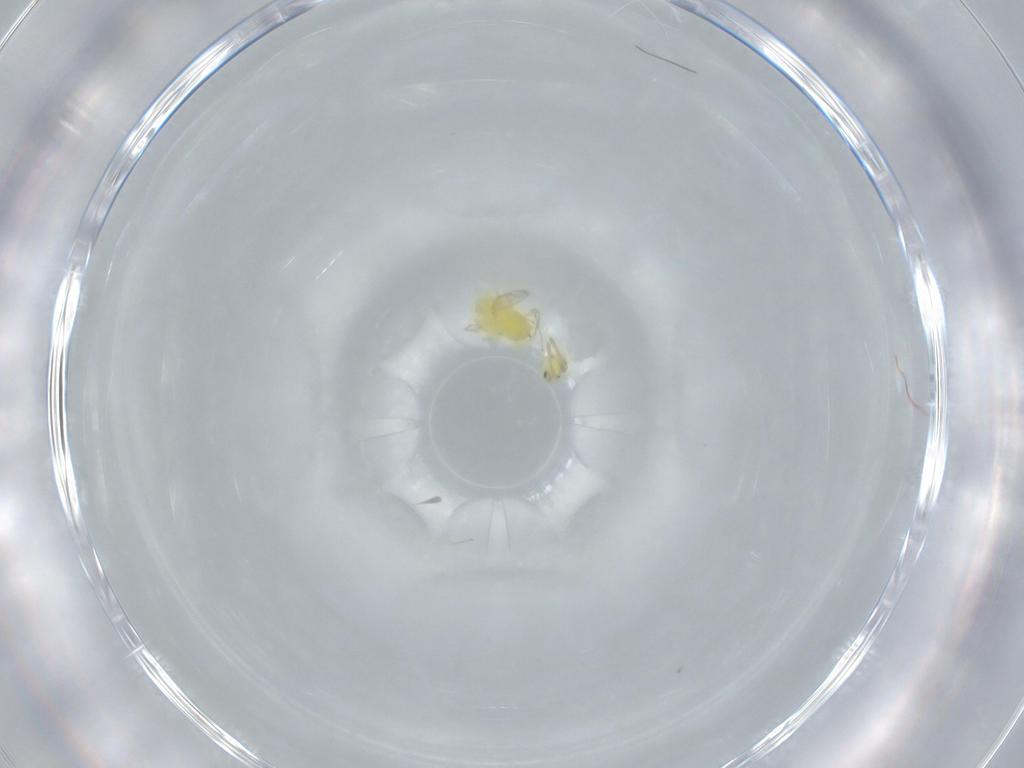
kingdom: Animalia
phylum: Arthropoda
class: Insecta
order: Hymenoptera
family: Aphelinidae
